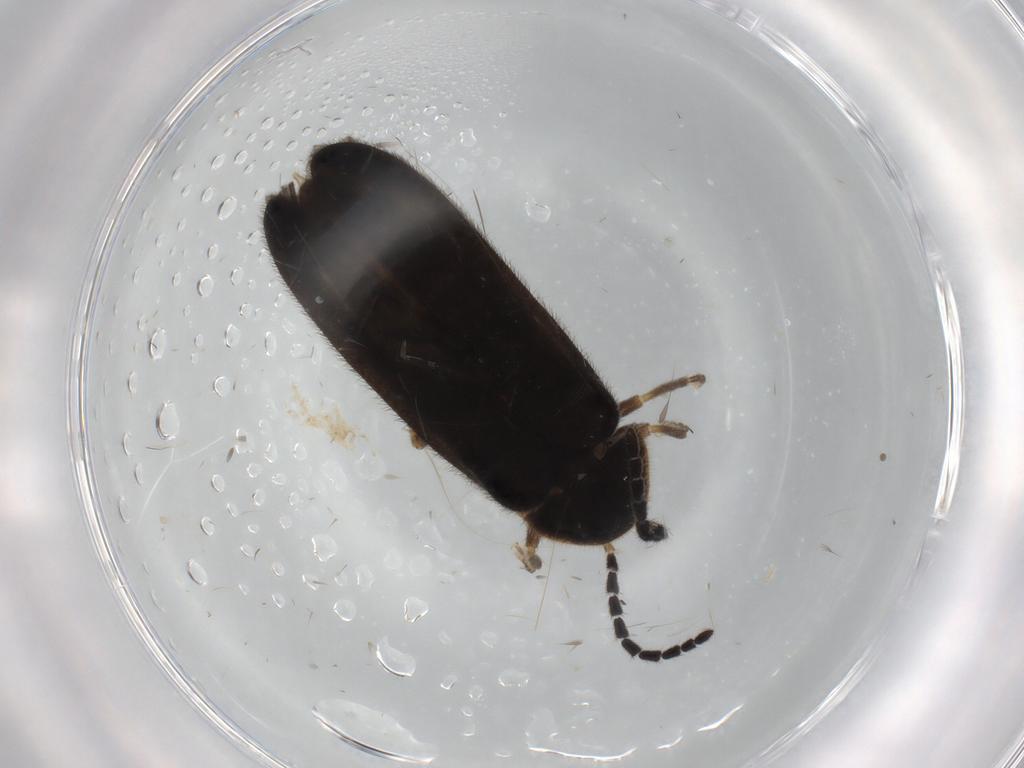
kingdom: Animalia
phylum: Arthropoda
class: Insecta
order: Coleoptera
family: Lampyridae
